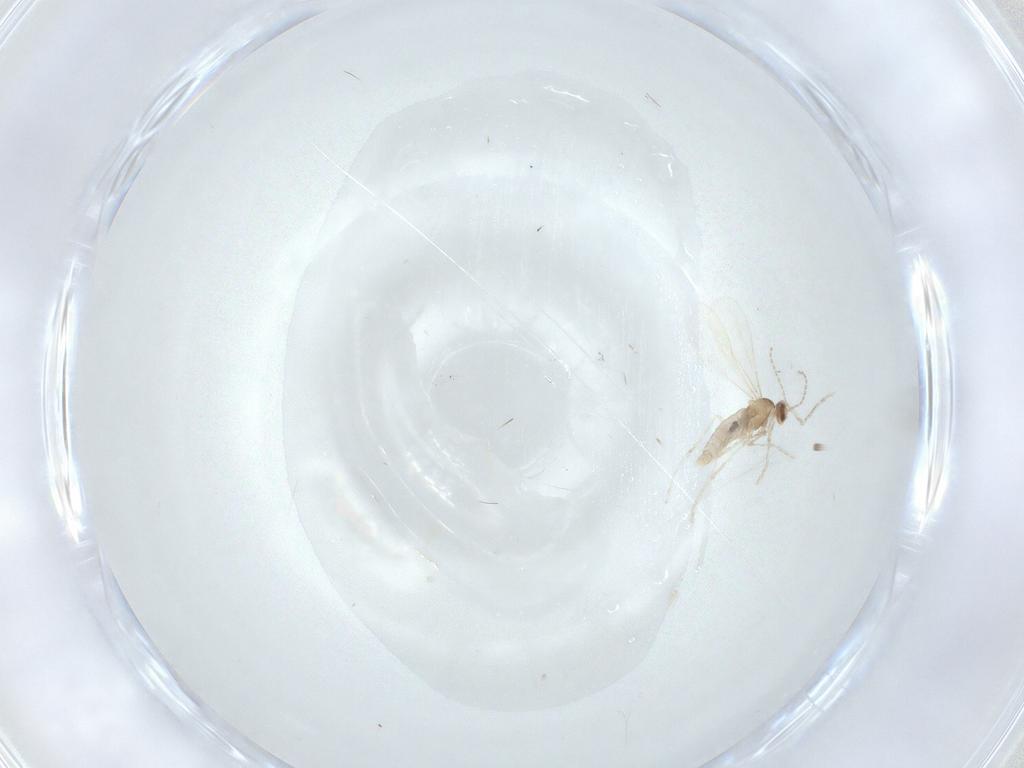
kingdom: Animalia
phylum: Arthropoda
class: Insecta
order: Diptera
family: Cecidomyiidae
